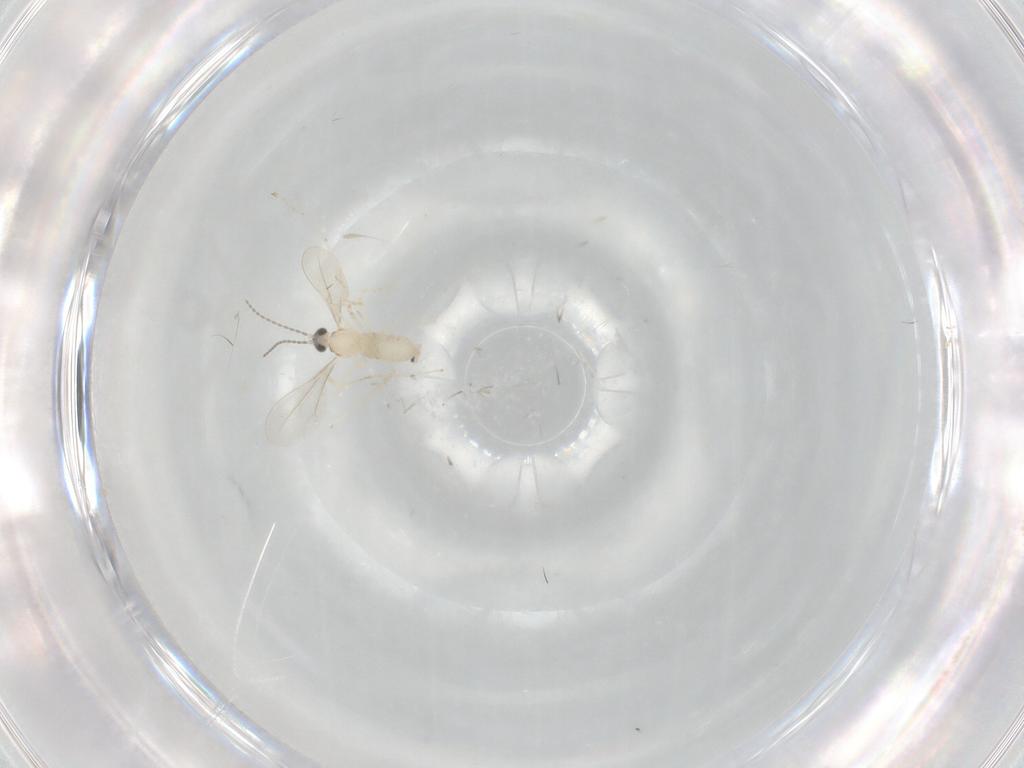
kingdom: Animalia
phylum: Arthropoda
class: Insecta
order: Diptera
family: Cecidomyiidae
